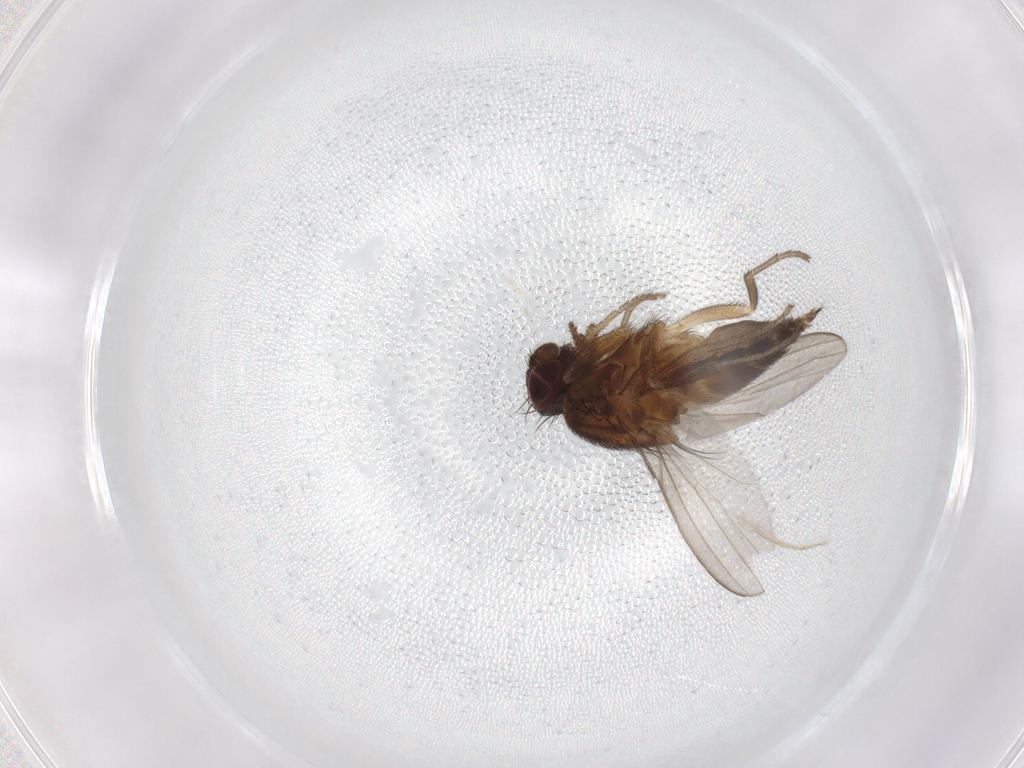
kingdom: Animalia
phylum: Arthropoda
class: Insecta
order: Diptera
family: Milichiidae
